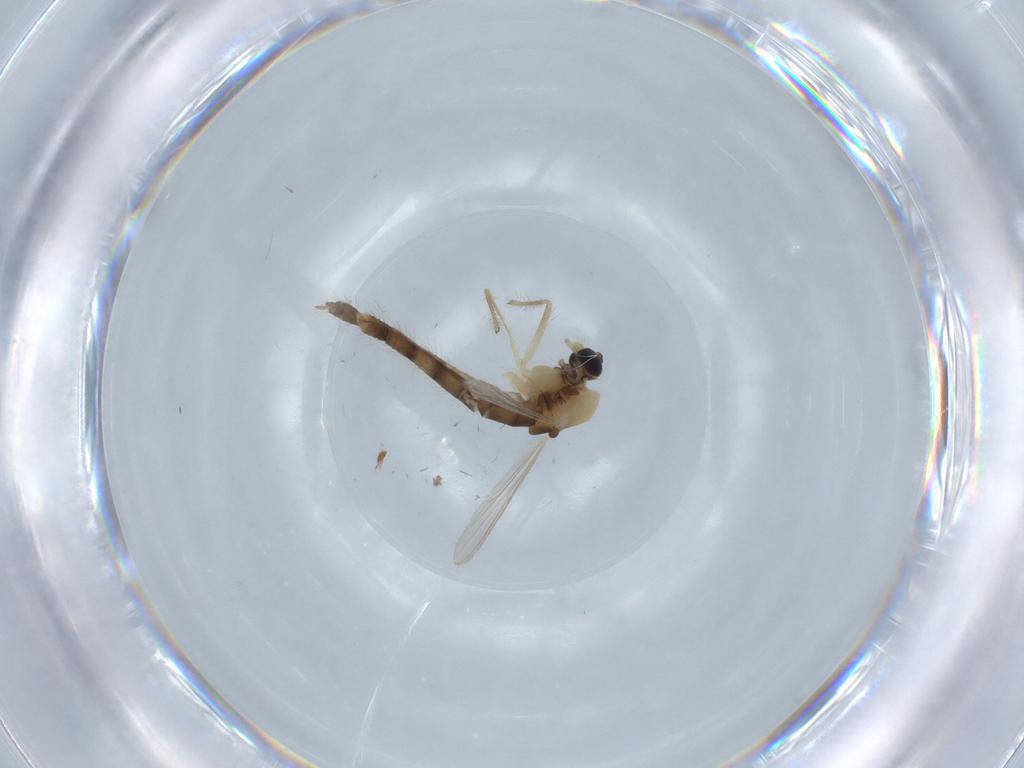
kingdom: Animalia
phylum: Arthropoda
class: Insecta
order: Diptera
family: Chironomidae
